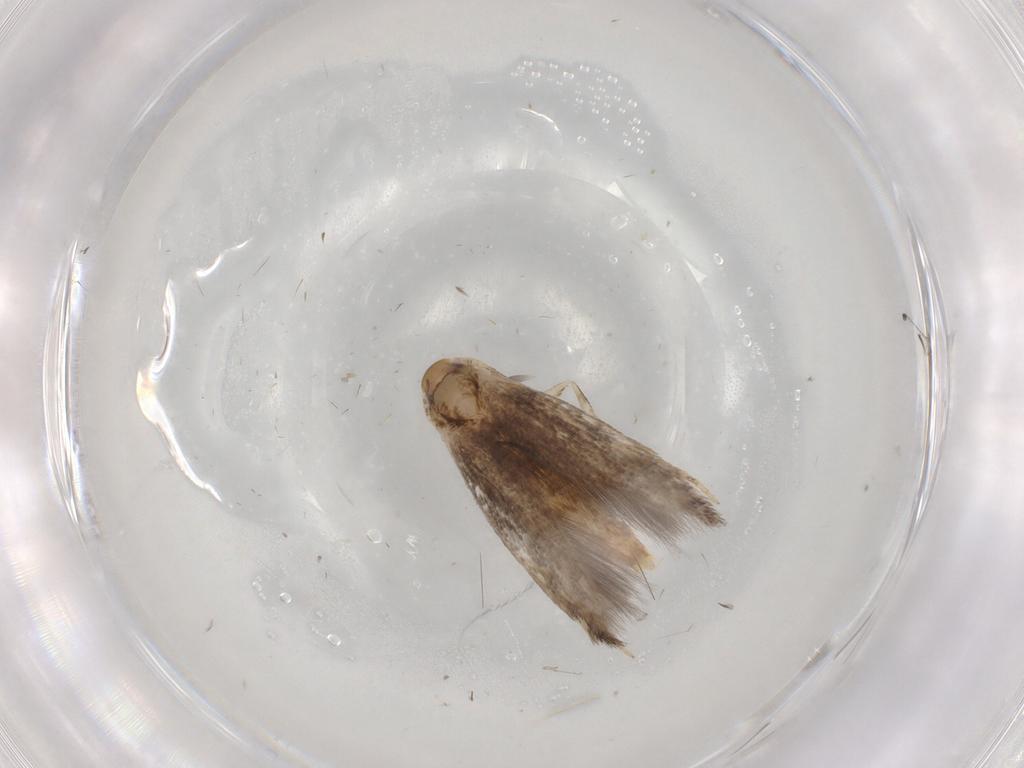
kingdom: Animalia
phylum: Arthropoda
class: Insecta
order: Lepidoptera
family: Momphidae
